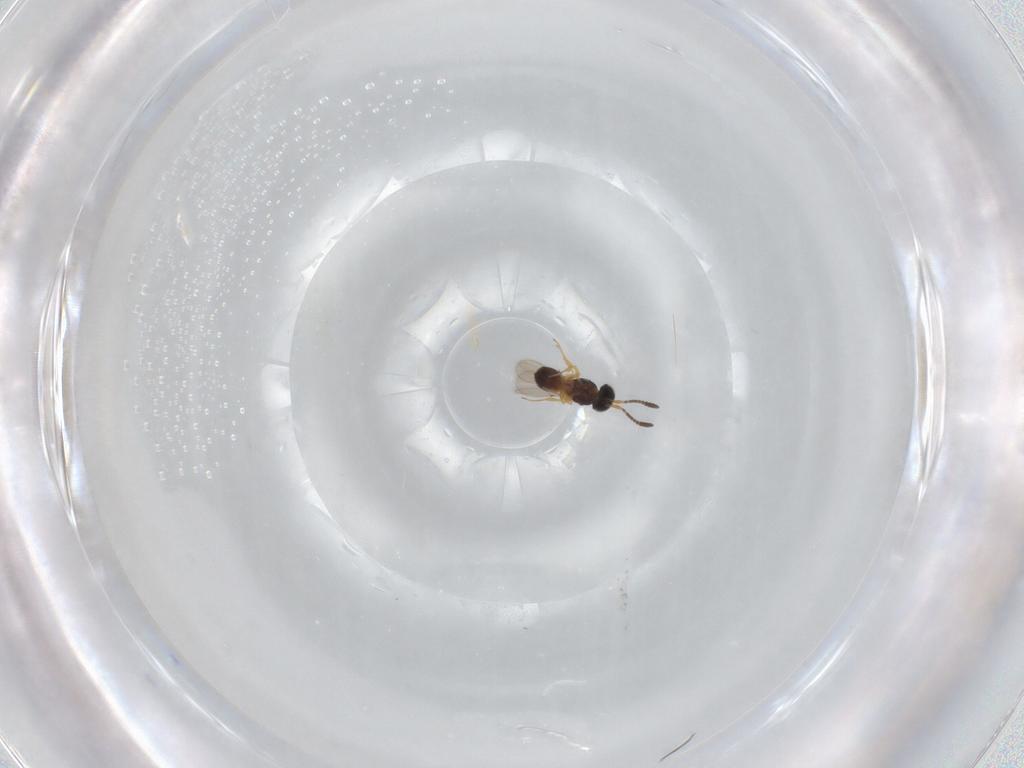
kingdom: Animalia
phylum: Arthropoda
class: Insecta
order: Hymenoptera
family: Scelionidae
